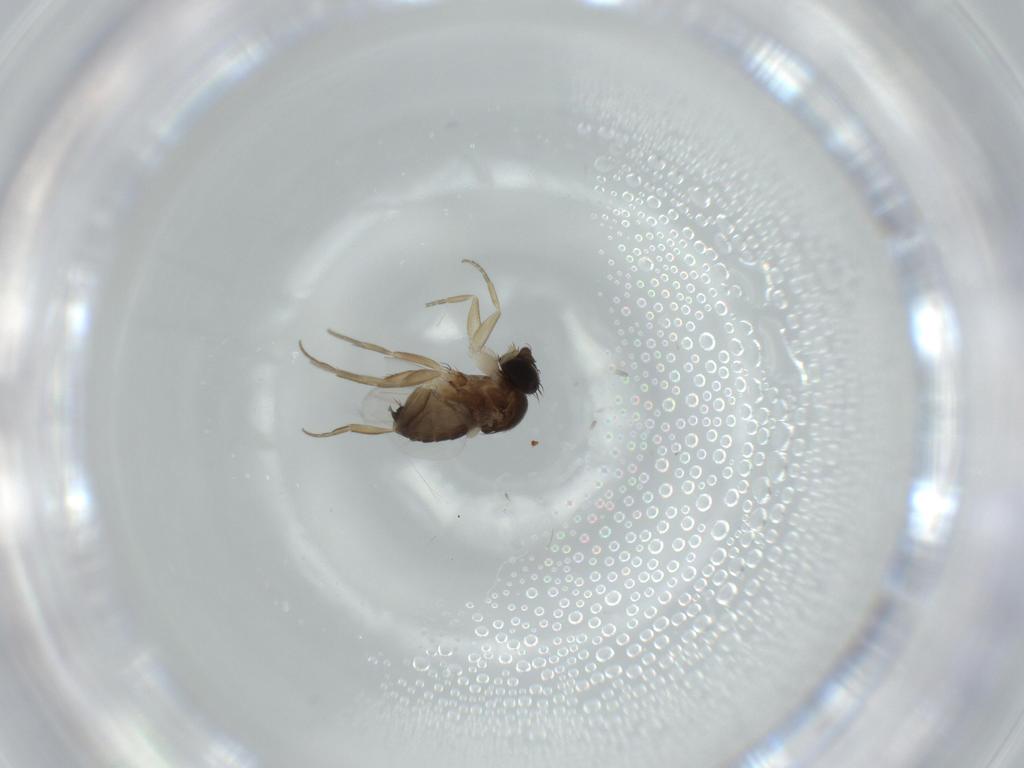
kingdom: Animalia
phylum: Arthropoda
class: Insecta
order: Diptera
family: Phoridae
